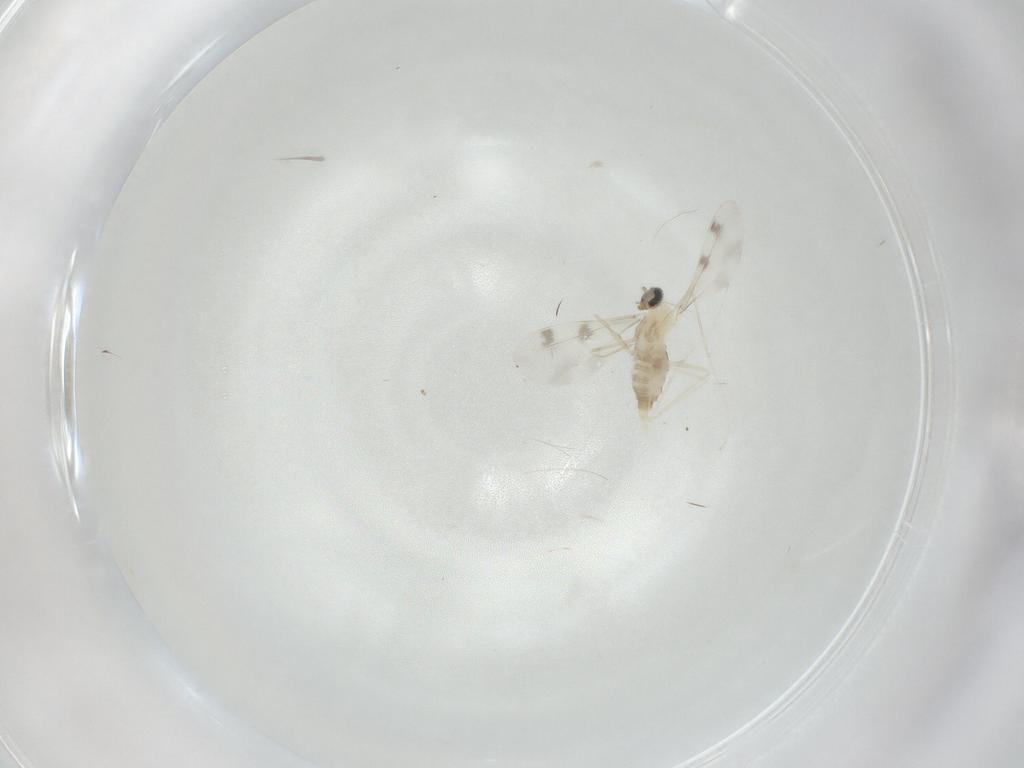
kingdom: Animalia
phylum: Arthropoda
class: Insecta
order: Diptera
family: Cecidomyiidae
